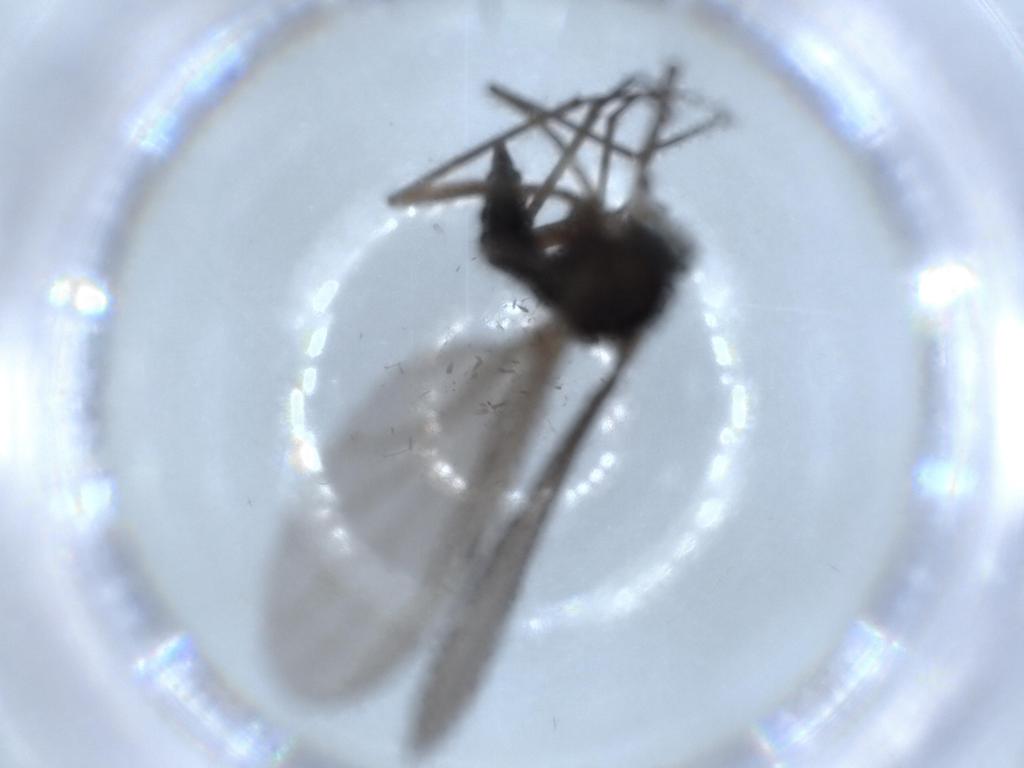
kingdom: Animalia
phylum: Arthropoda
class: Insecta
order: Diptera
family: Sciaridae
